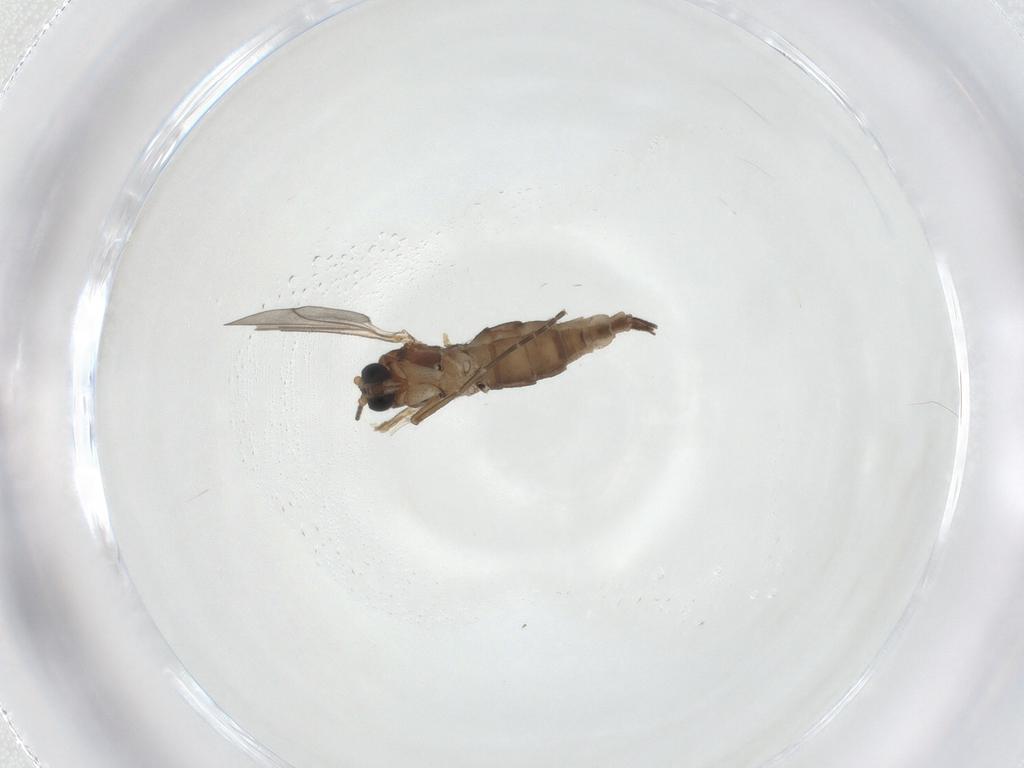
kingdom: Animalia
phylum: Arthropoda
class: Insecta
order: Diptera
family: Sciaridae
